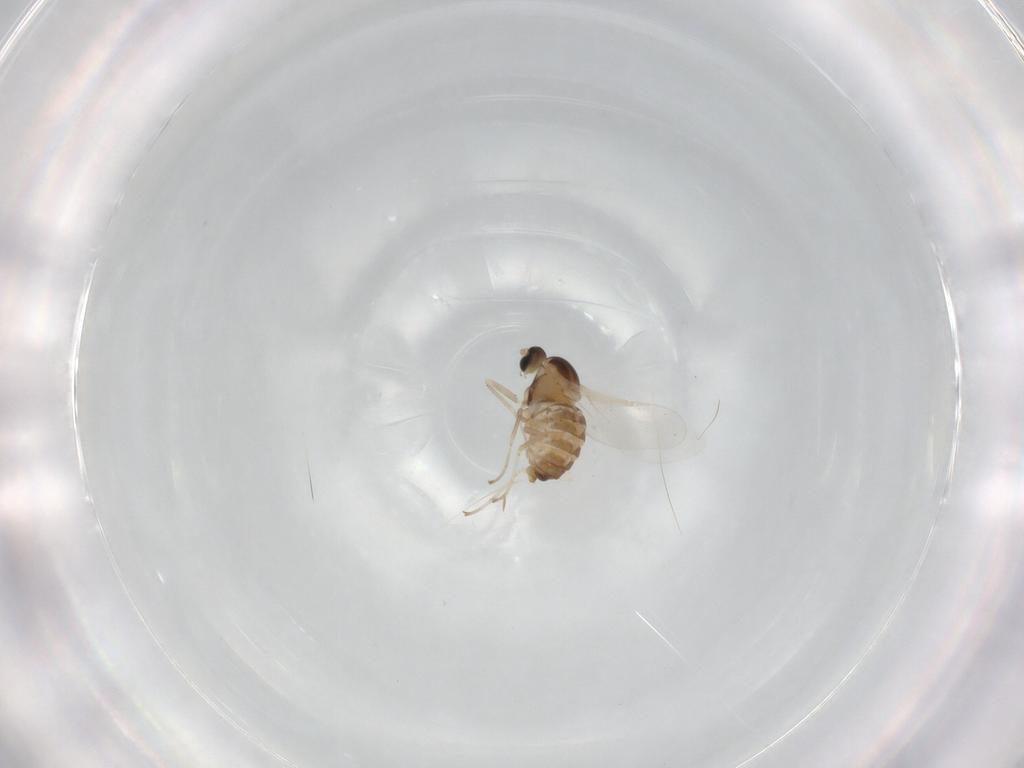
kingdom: Animalia
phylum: Arthropoda
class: Insecta
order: Diptera
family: Cecidomyiidae
